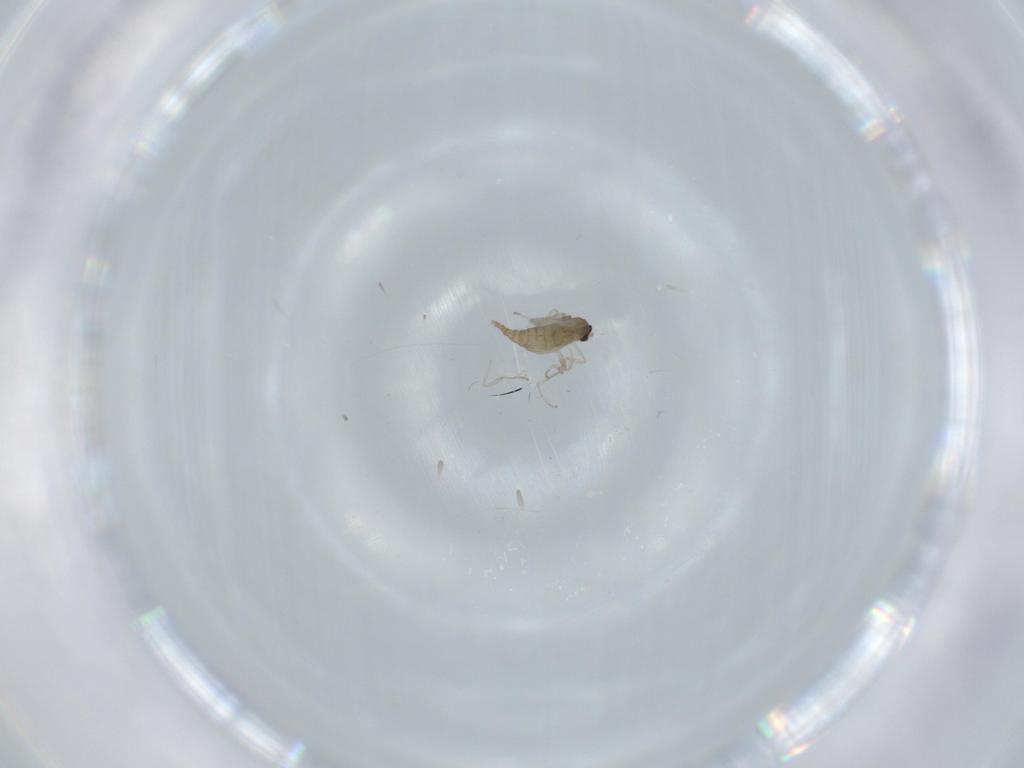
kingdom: Animalia
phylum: Arthropoda
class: Insecta
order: Diptera
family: Cecidomyiidae
